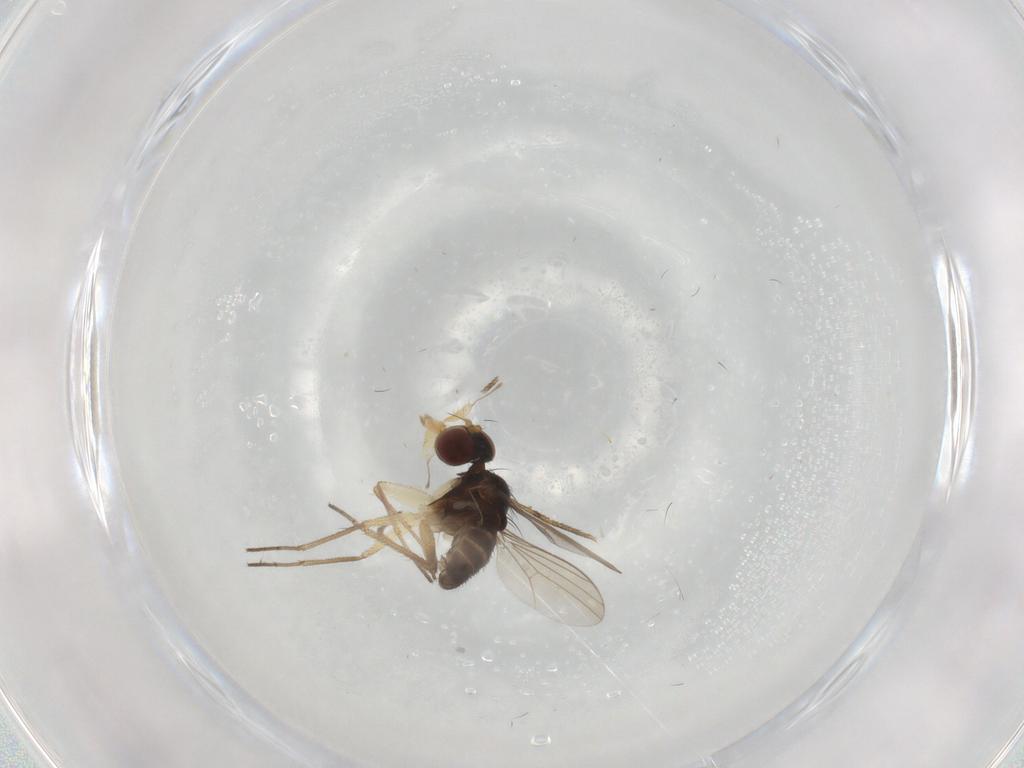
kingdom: Animalia
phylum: Arthropoda
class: Insecta
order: Diptera
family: Dolichopodidae
